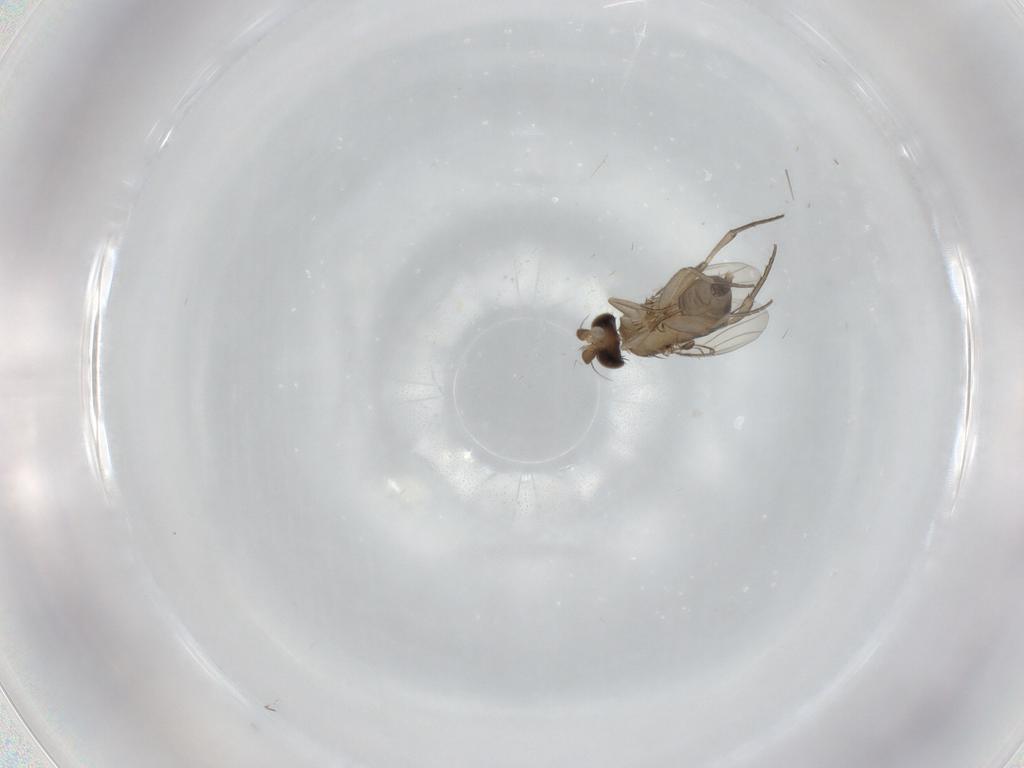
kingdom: Animalia
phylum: Arthropoda
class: Insecta
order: Diptera
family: Phoridae
